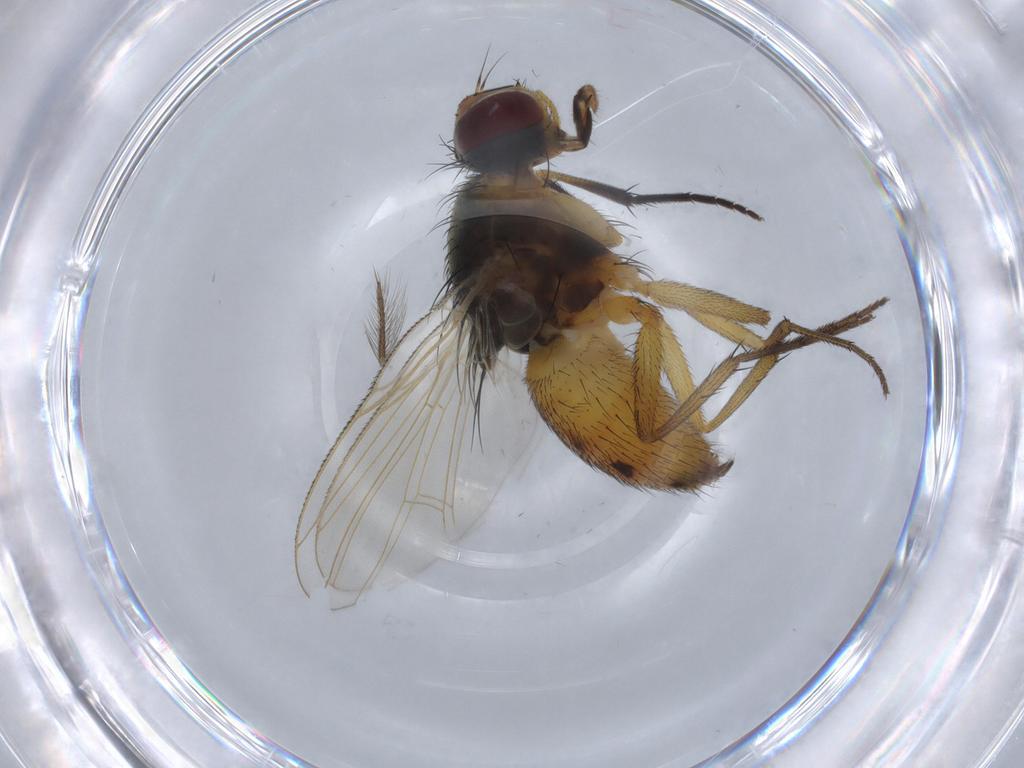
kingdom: Animalia
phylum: Arthropoda
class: Insecta
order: Diptera
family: Muscidae
